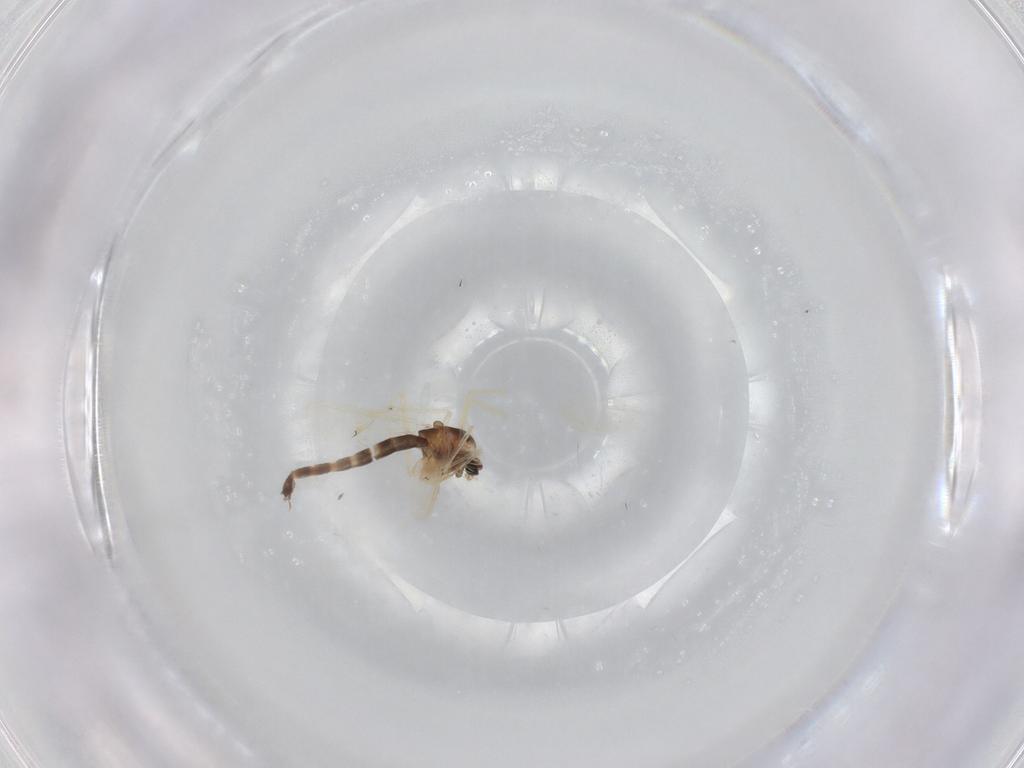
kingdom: Animalia
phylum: Arthropoda
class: Insecta
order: Diptera
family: Chironomidae
